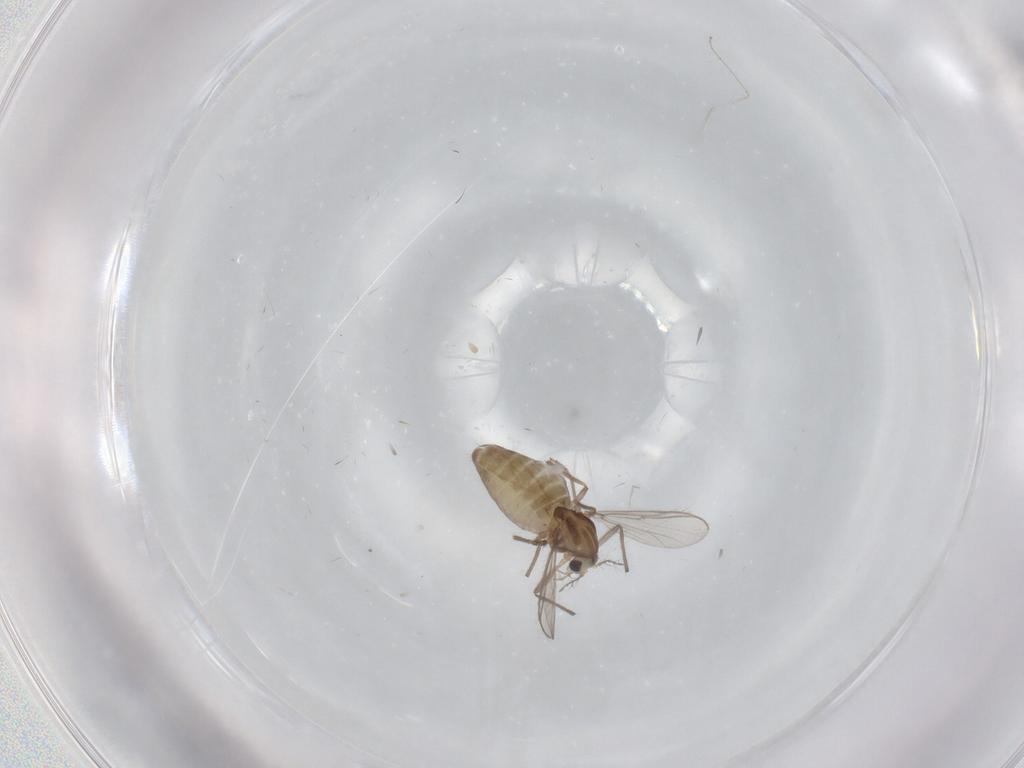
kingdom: Animalia
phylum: Arthropoda
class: Insecta
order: Diptera
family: Chironomidae
